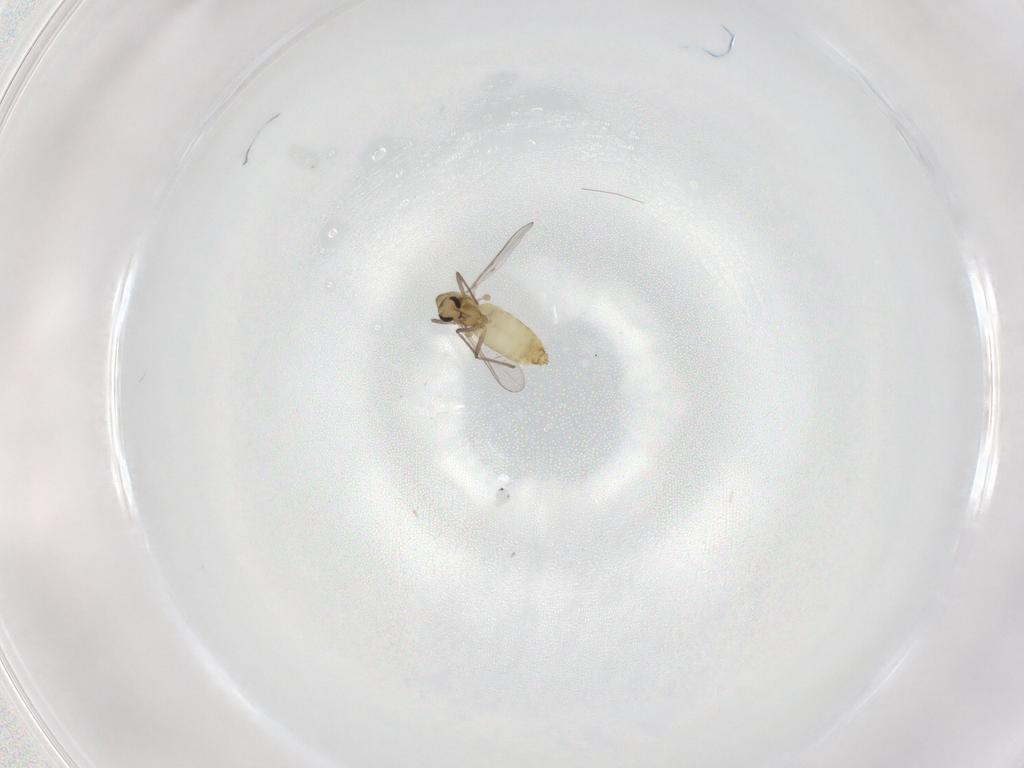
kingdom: Animalia
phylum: Arthropoda
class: Insecta
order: Diptera
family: Chironomidae
